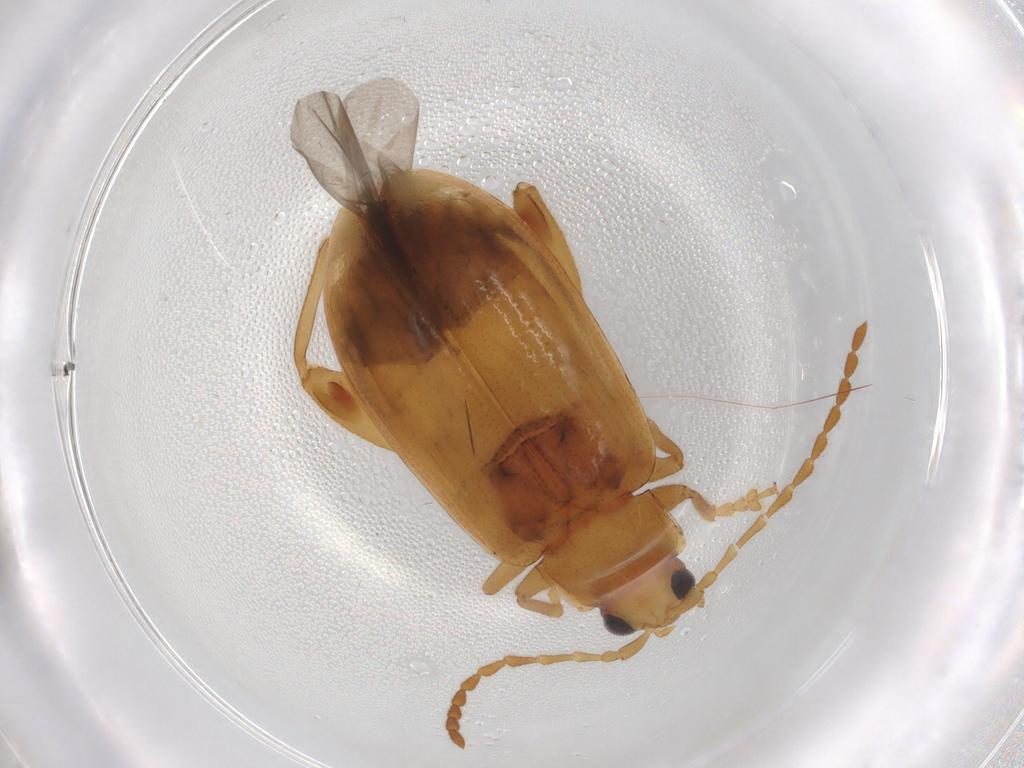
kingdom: Animalia
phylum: Arthropoda
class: Insecta
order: Coleoptera
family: Chrysomelidae
